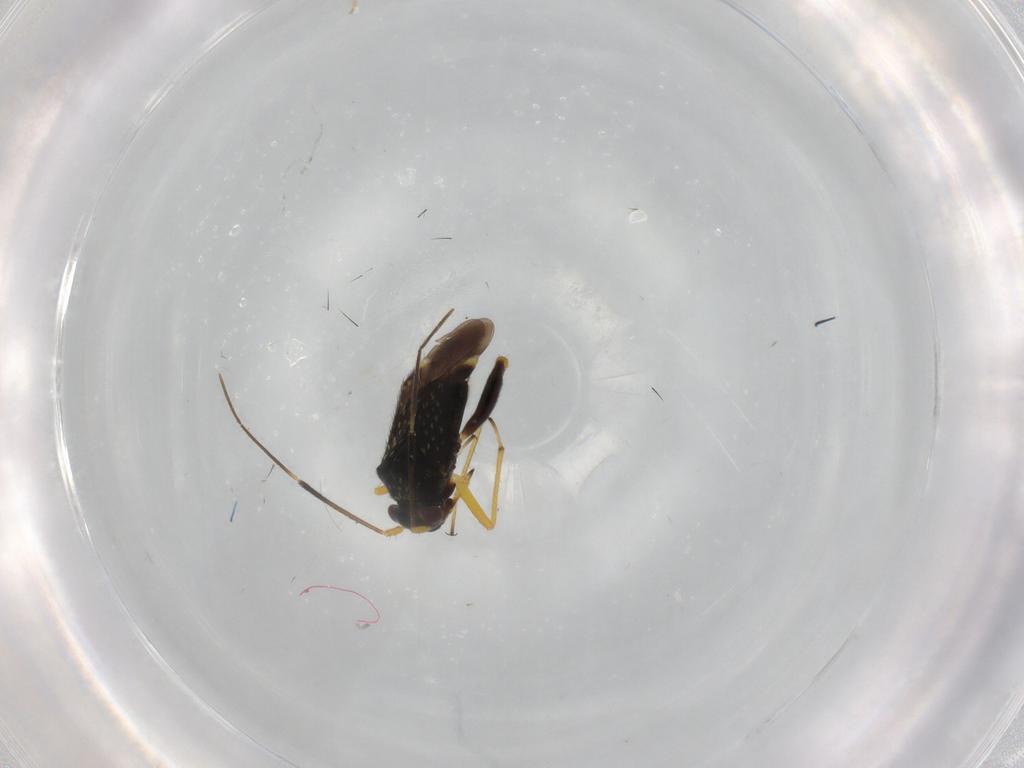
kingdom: Animalia
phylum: Arthropoda
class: Insecta
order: Hemiptera
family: Miridae
